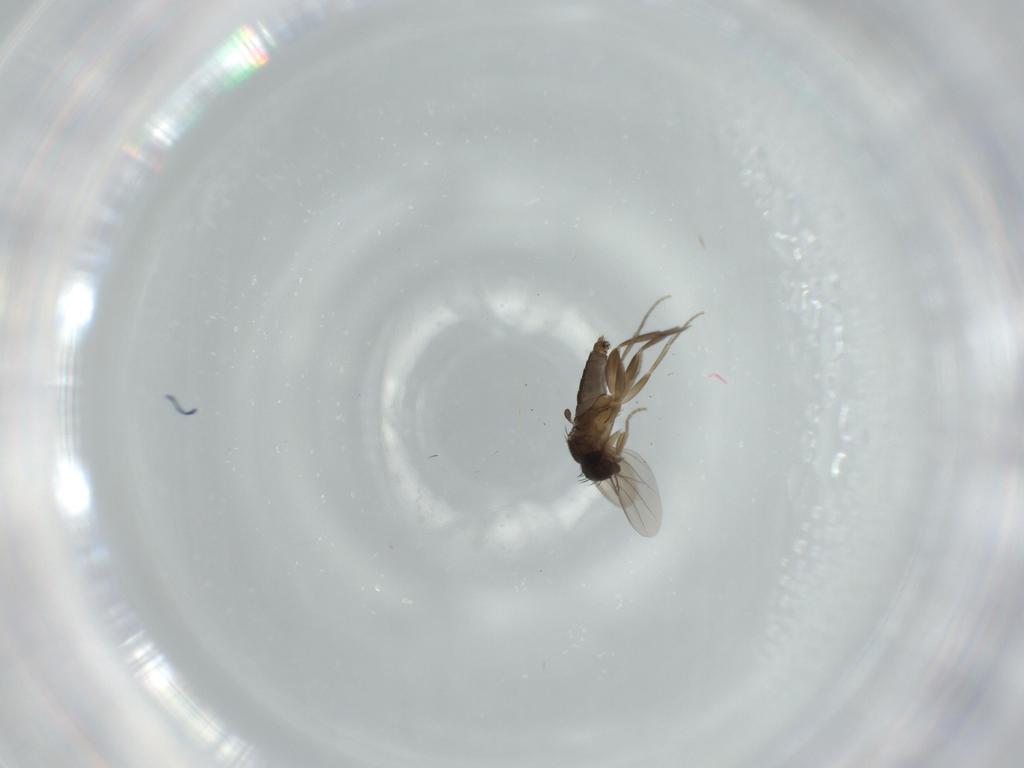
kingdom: Animalia
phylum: Arthropoda
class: Insecta
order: Diptera
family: Phoridae
